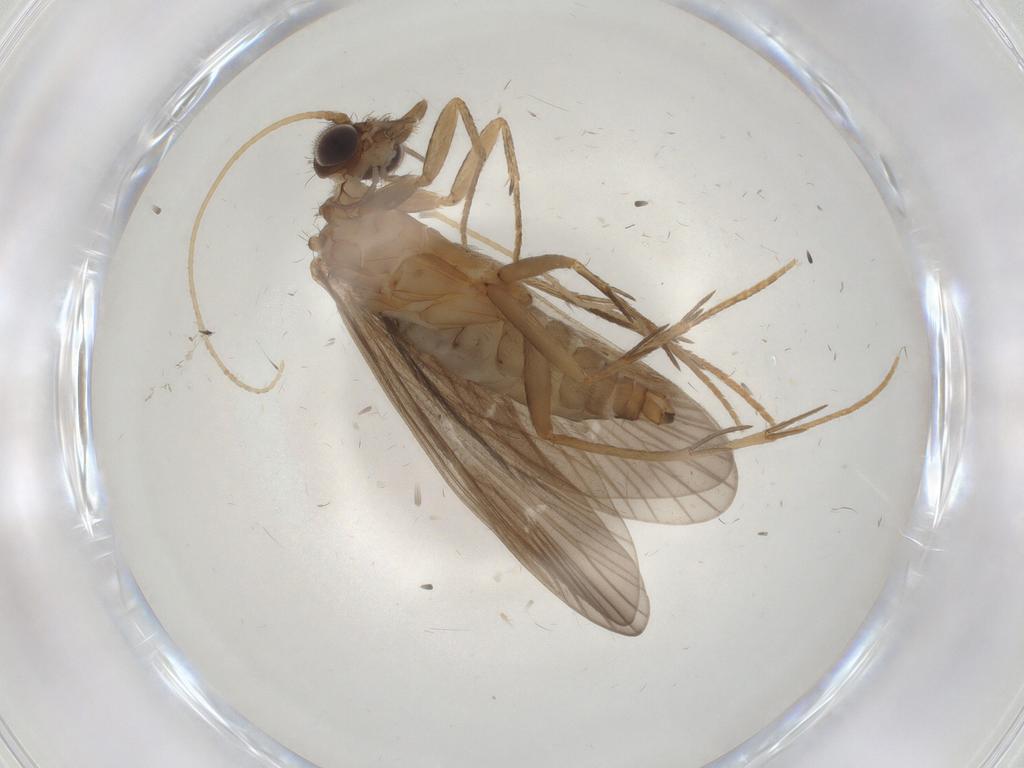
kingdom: Animalia
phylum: Arthropoda
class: Insecta
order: Trichoptera
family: Philopotamidae
